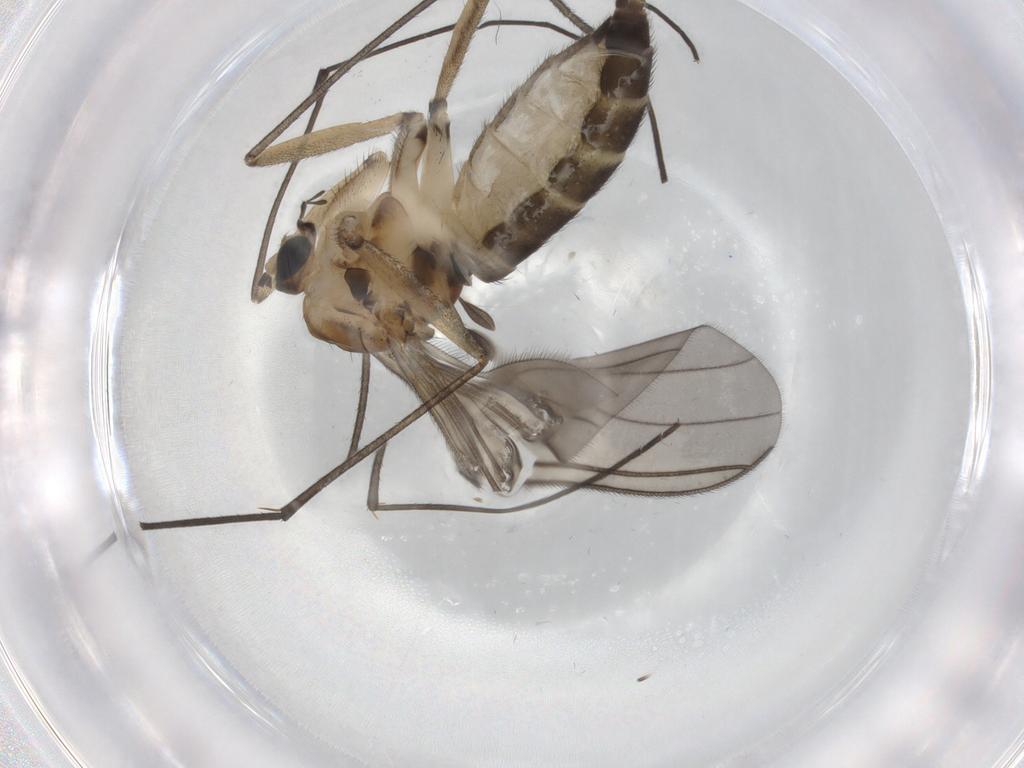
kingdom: Animalia
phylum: Arthropoda
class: Insecta
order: Diptera
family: Sciaridae
